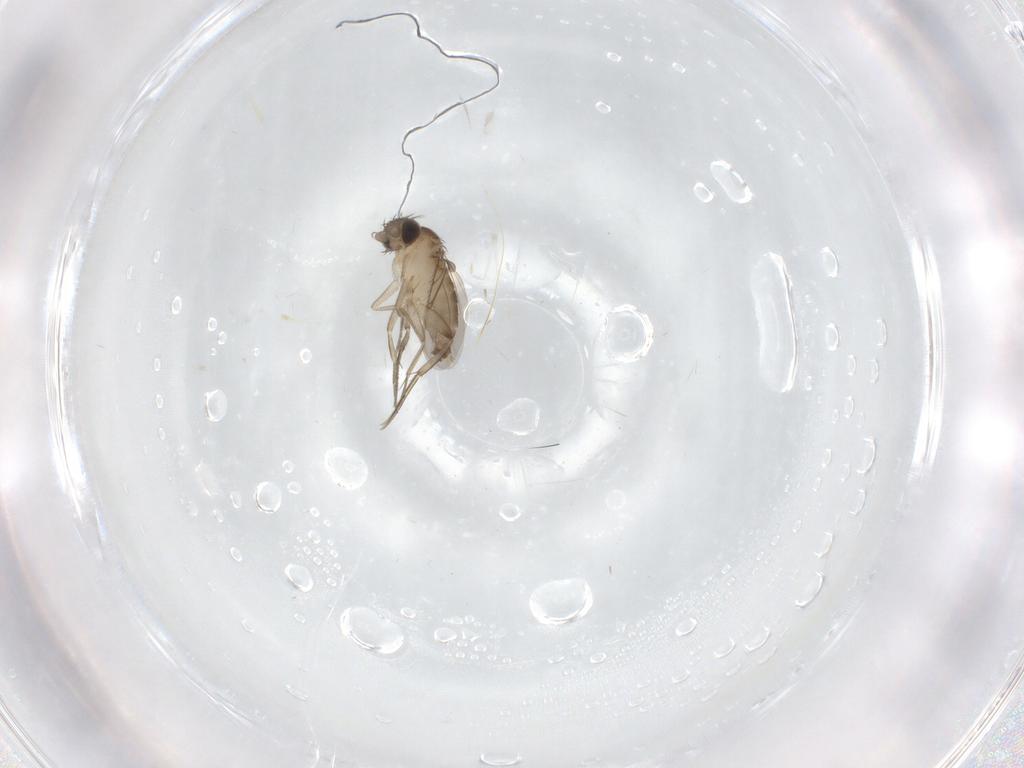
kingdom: Animalia
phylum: Arthropoda
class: Insecta
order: Diptera
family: Phoridae
